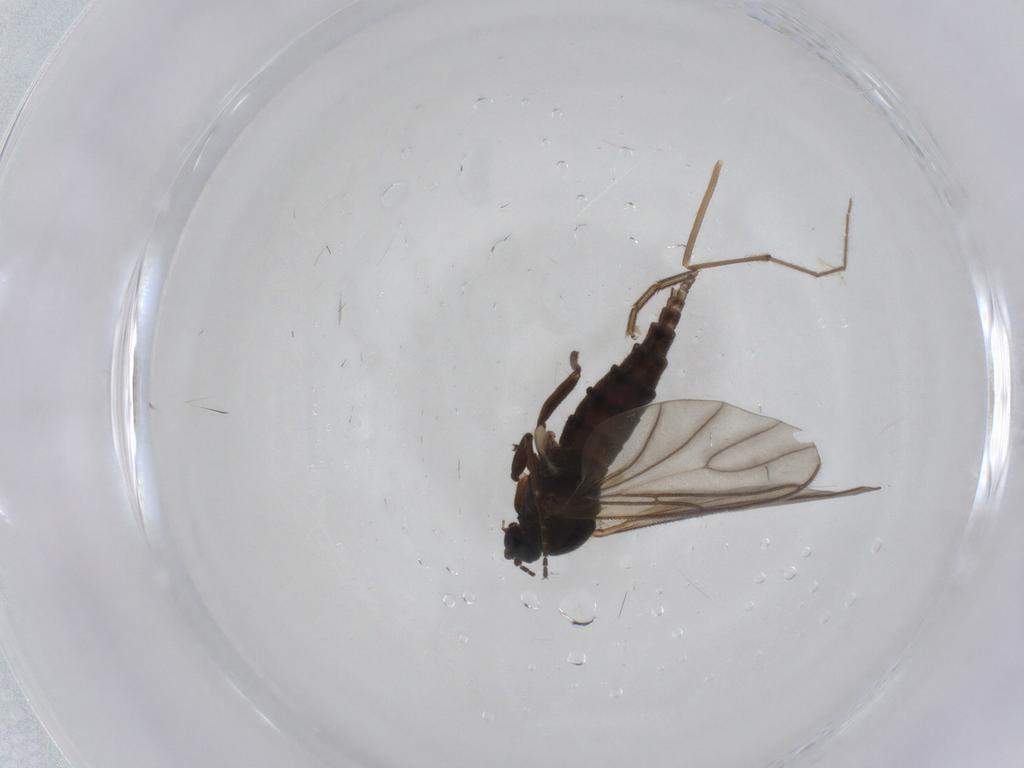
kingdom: Animalia
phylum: Arthropoda
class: Insecta
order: Diptera
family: Sciaridae
